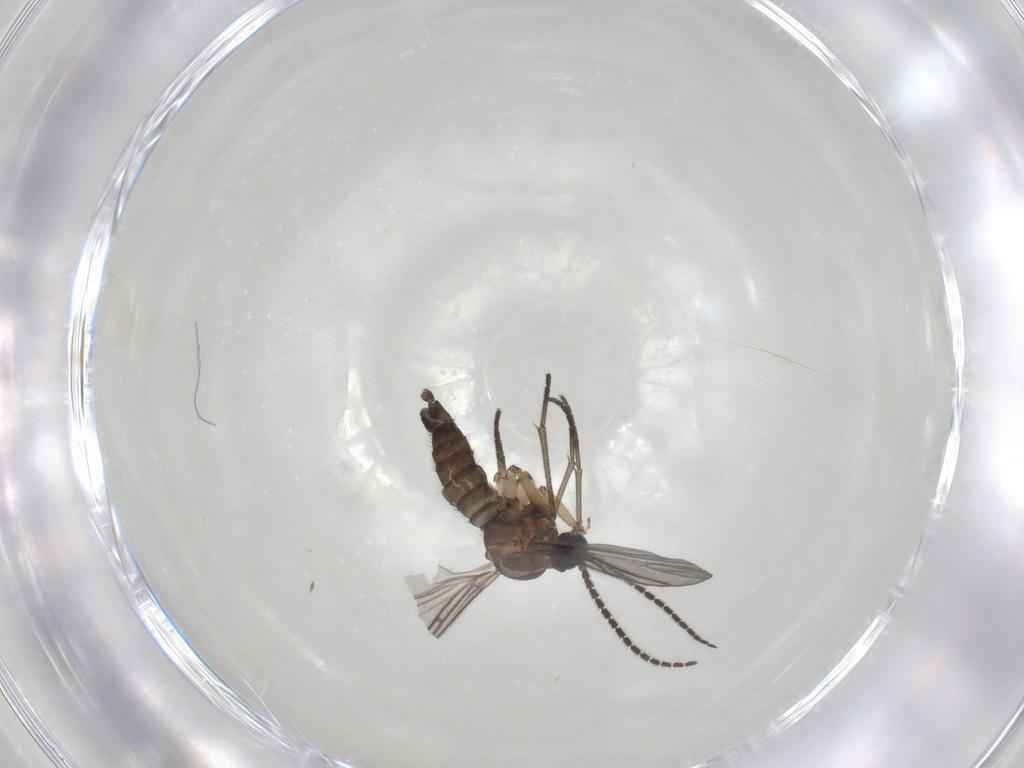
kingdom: Animalia
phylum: Arthropoda
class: Insecta
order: Diptera
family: Sciaridae
